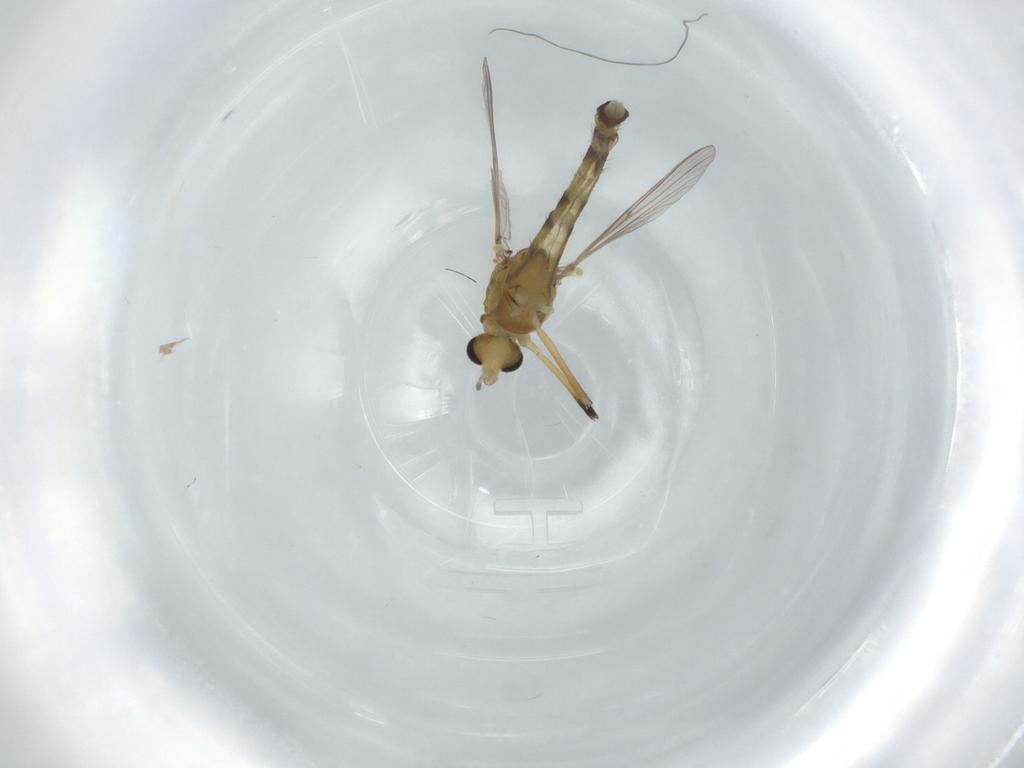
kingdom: Animalia
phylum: Arthropoda
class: Insecta
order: Diptera
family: Chironomidae
